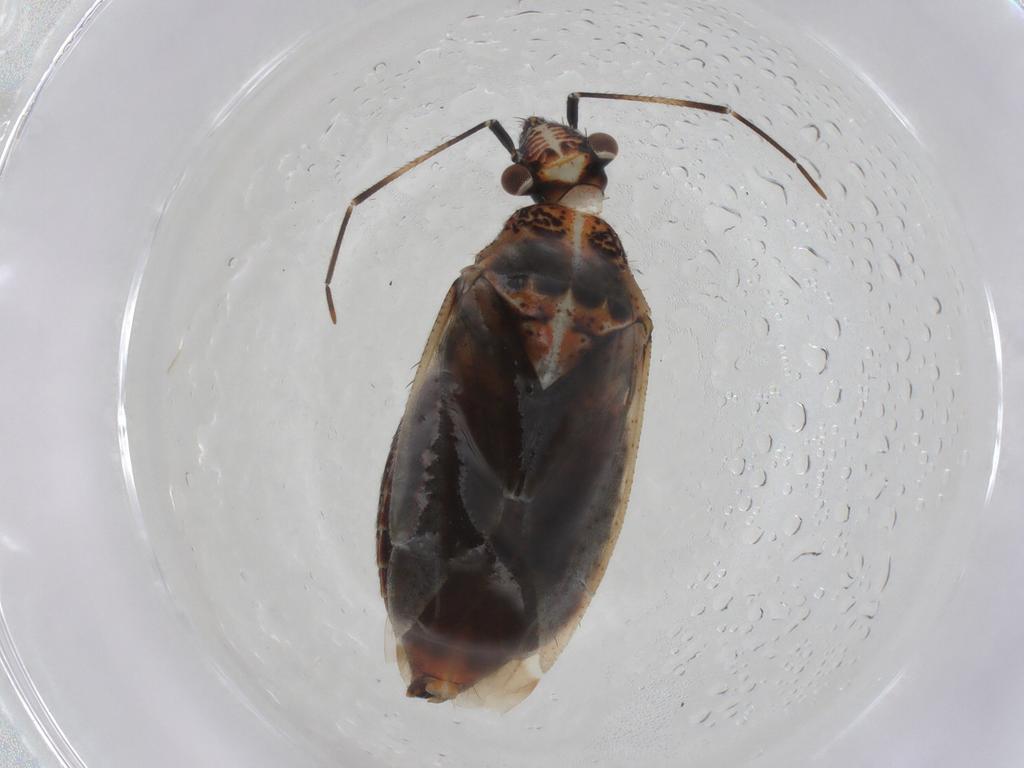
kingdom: Animalia
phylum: Arthropoda
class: Insecta
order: Hemiptera
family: Miridae
